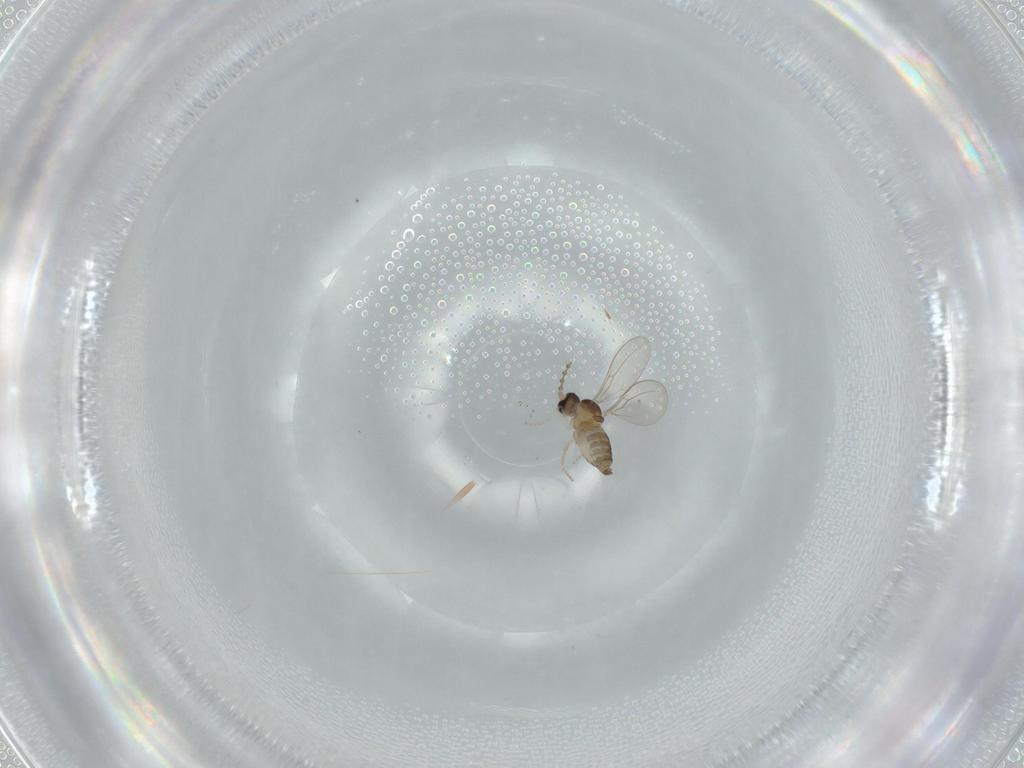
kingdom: Animalia
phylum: Arthropoda
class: Insecta
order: Diptera
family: Cecidomyiidae
